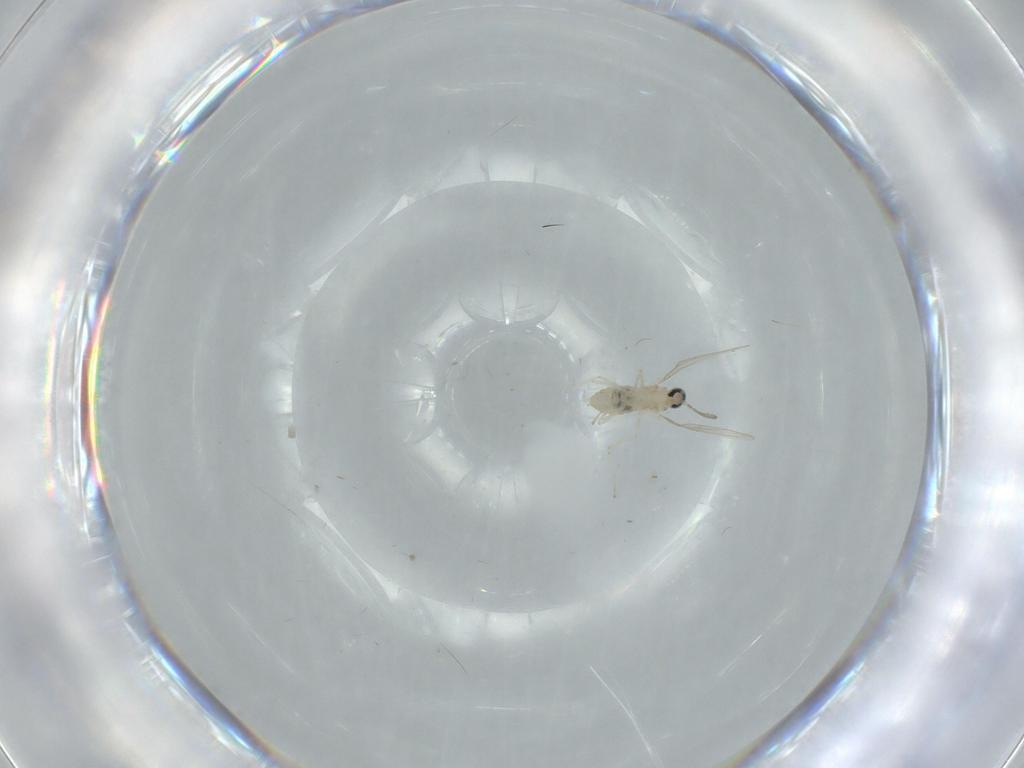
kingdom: Animalia
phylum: Arthropoda
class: Insecta
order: Diptera
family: Cecidomyiidae
